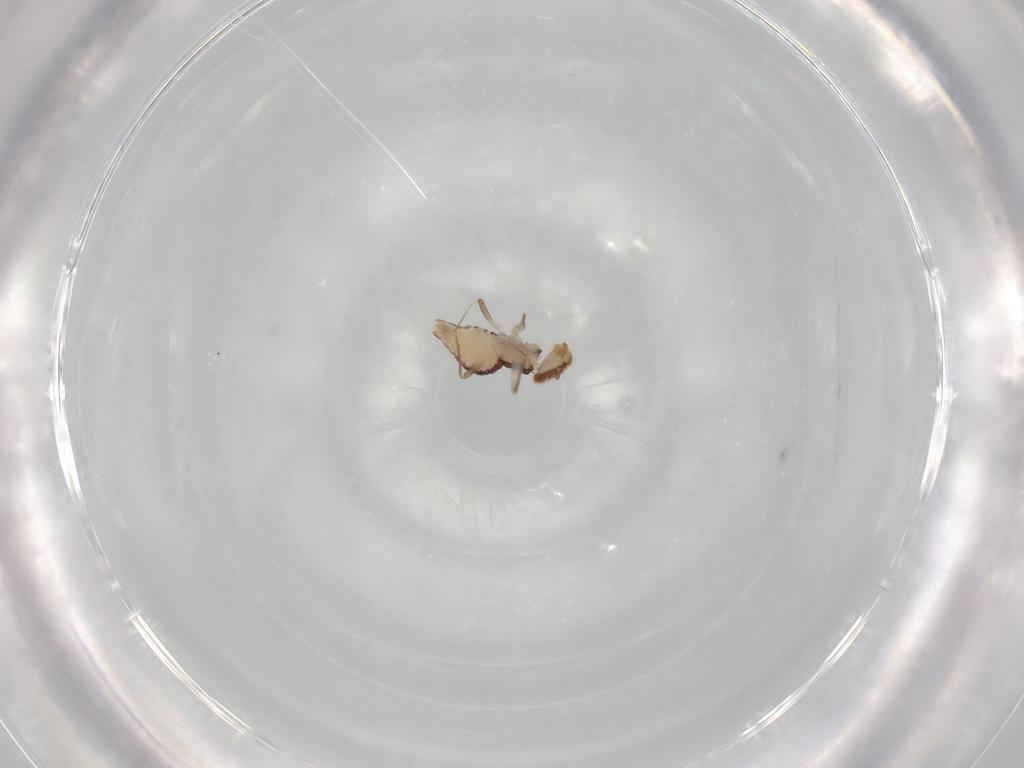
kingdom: Animalia
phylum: Arthropoda
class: Insecta
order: Psocodea
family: Lepidopsocidae
